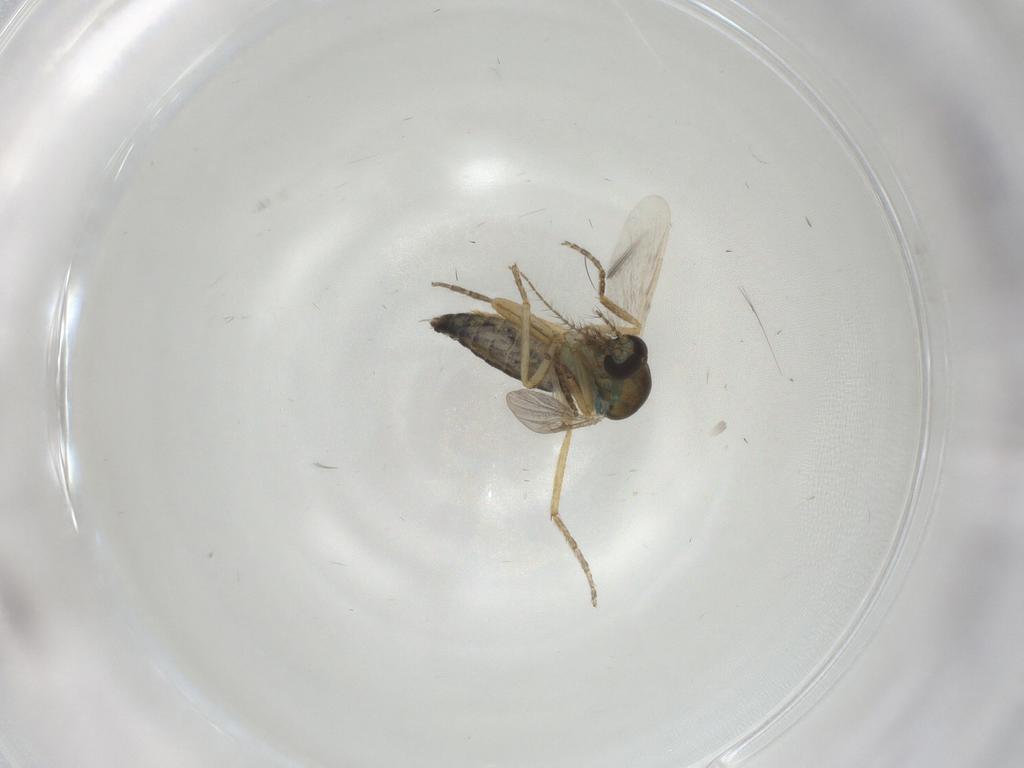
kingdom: Animalia
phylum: Arthropoda
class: Insecta
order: Diptera
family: Ceratopogonidae
